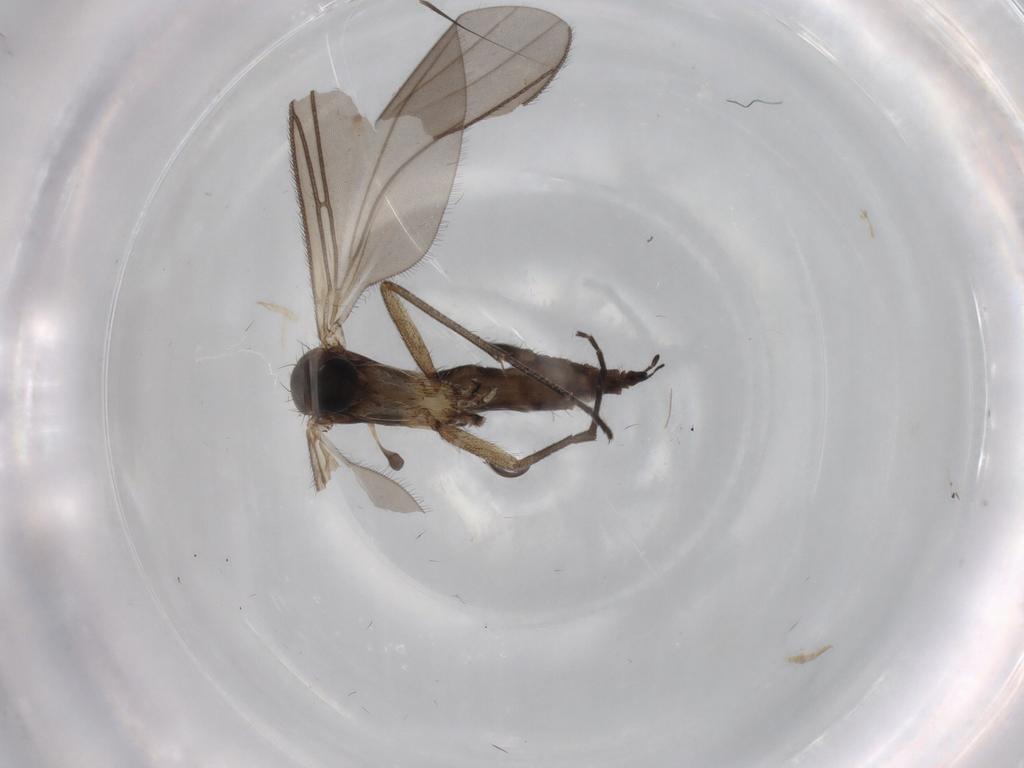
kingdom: Animalia
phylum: Arthropoda
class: Insecta
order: Diptera
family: Sciaridae
